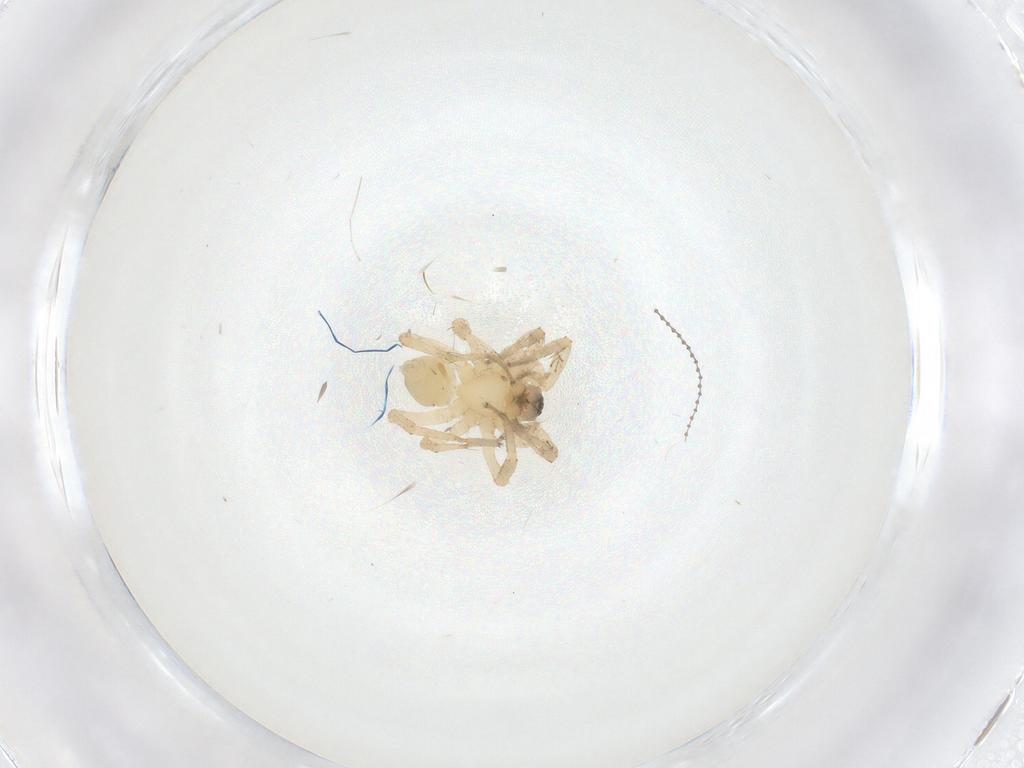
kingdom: Animalia
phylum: Arthropoda
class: Arachnida
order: Araneae
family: Anyphaenidae
